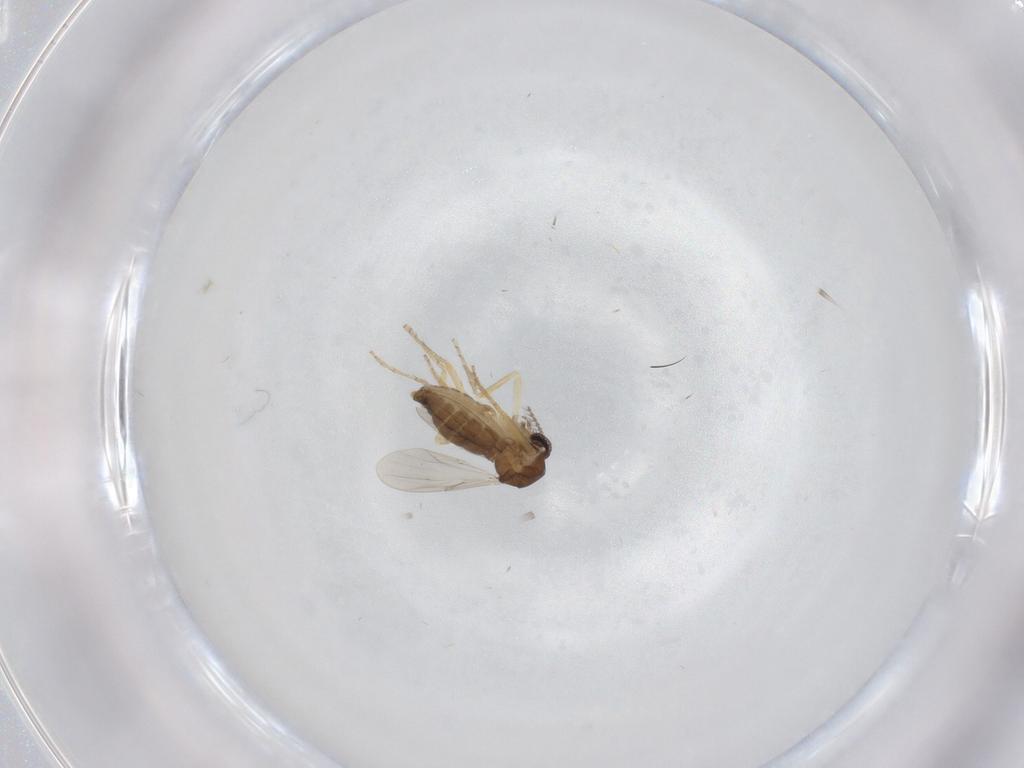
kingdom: Animalia
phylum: Arthropoda
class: Insecta
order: Diptera
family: Ceratopogonidae
